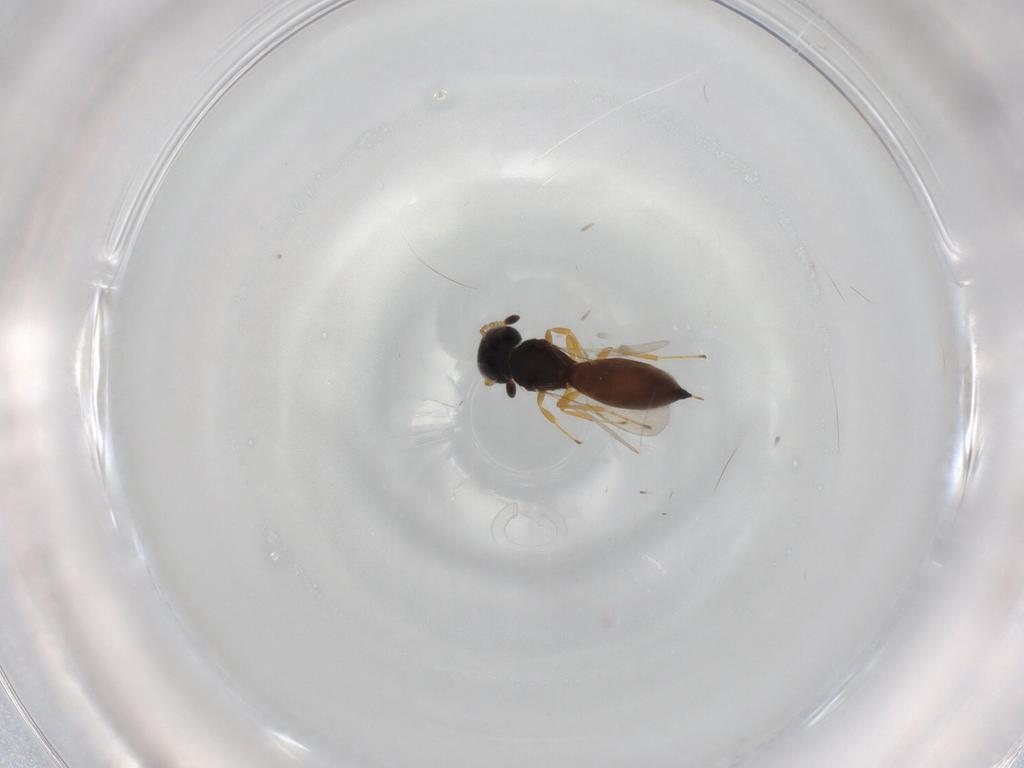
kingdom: Animalia
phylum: Arthropoda
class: Insecta
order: Hymenoptera
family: Scelionidae
